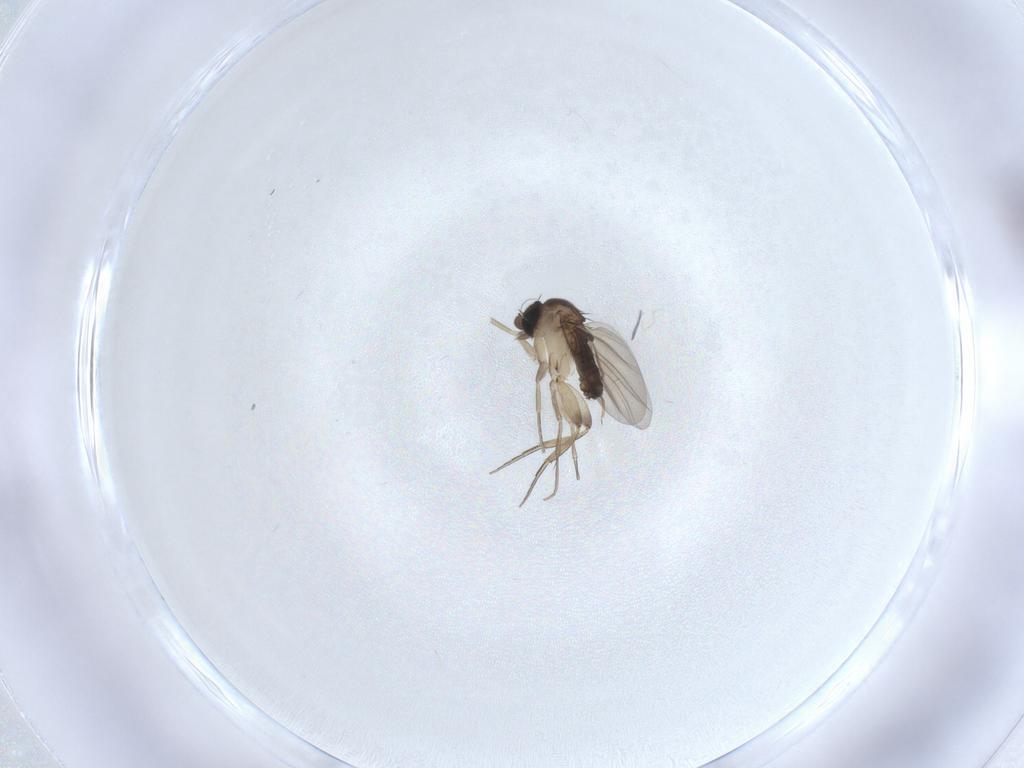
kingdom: Animalia
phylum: Arthropoda
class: Insecta
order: Diptera
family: Phoridae
